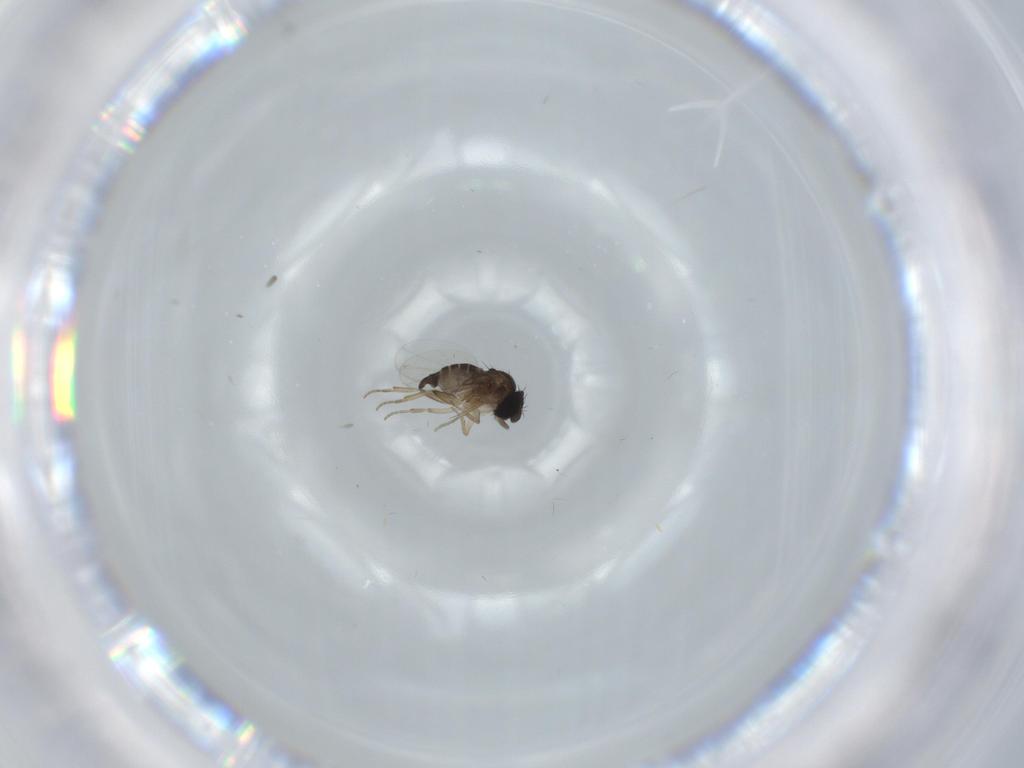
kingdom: Animalia
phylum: Arthropoda
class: Insecta
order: Diptera
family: Phoridae
